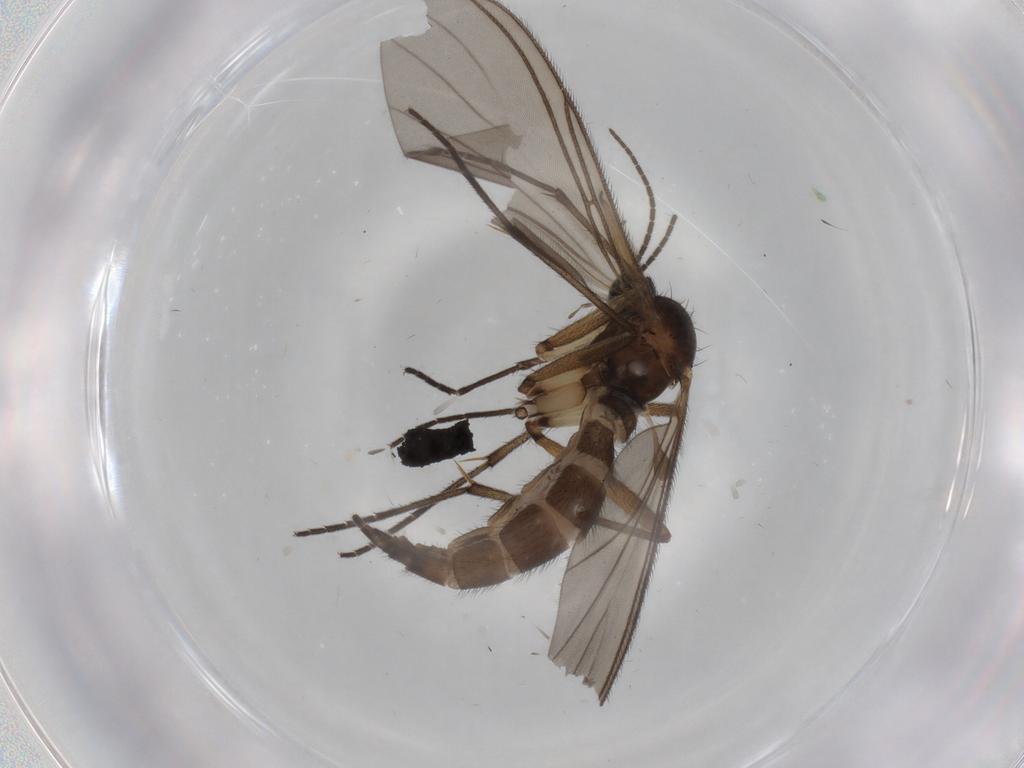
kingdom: Animalia
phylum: Arthropoda
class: Insecta
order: Diptera
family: Sciaridae
